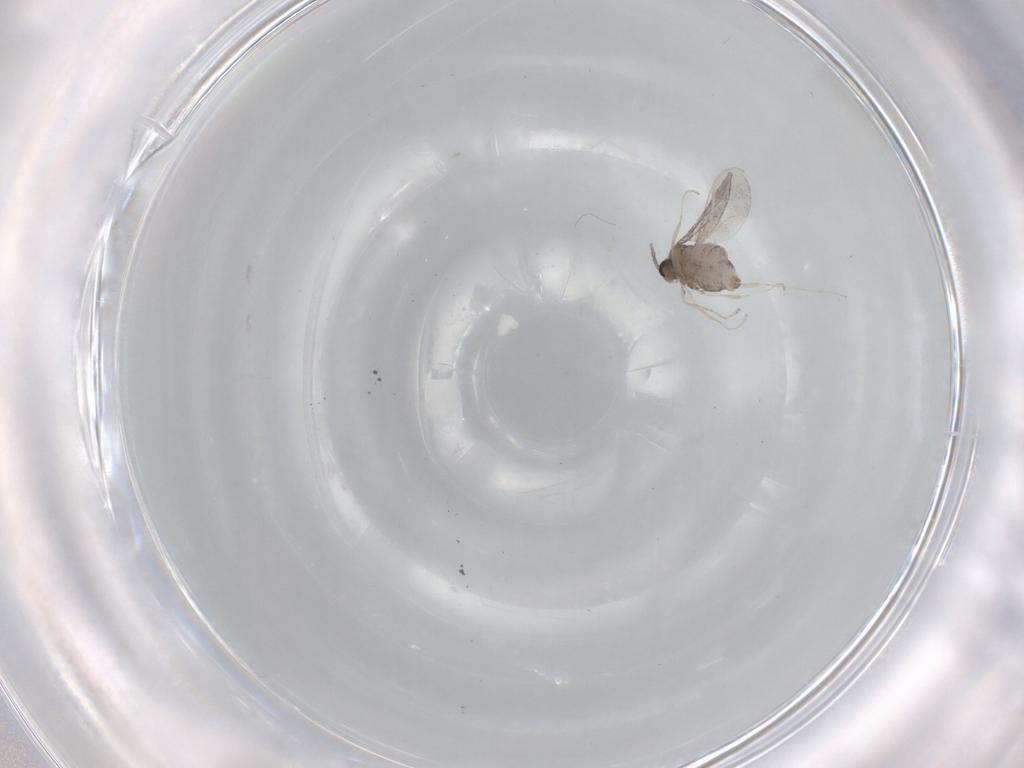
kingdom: Animalia
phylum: Arthropoda
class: Insecta
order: Diptera
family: Cecidomyiidae
